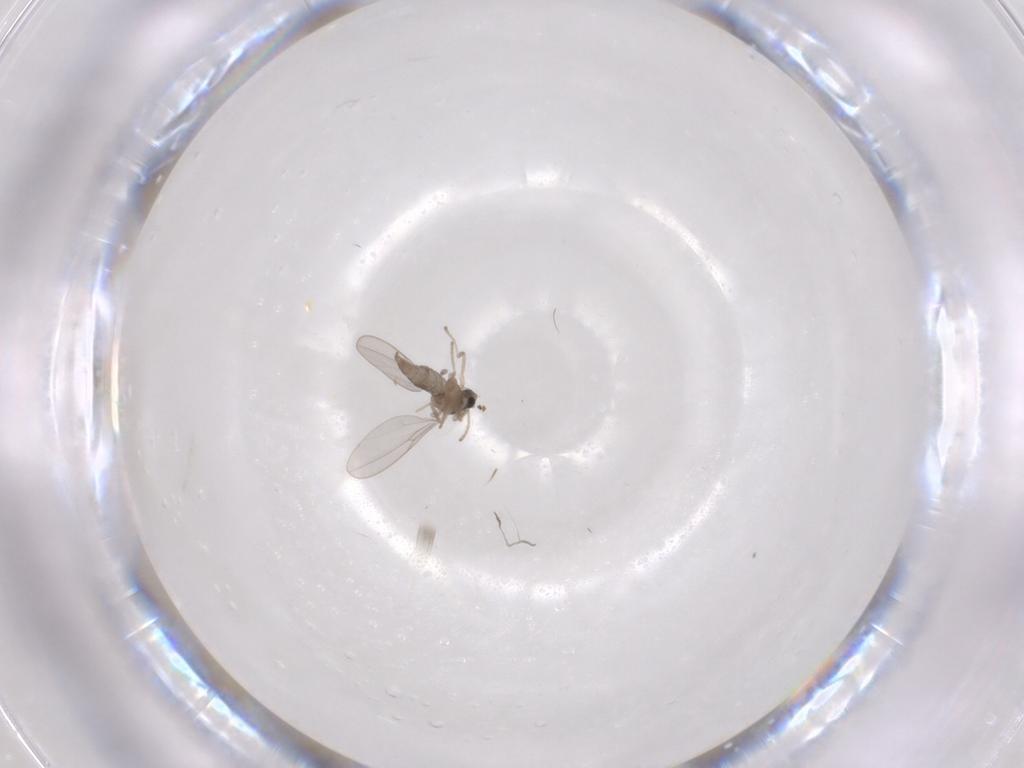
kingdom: Animalia
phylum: Arthropoda
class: Insecta
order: Diptera
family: Cecidomyiidae
